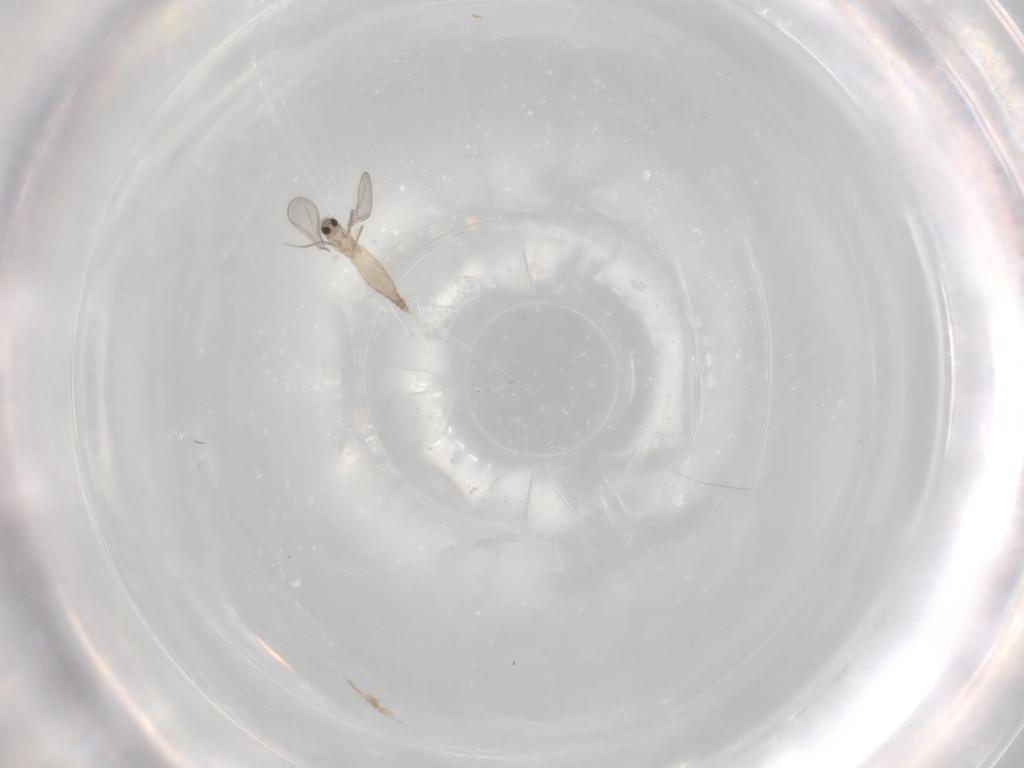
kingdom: Animalia
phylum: Arthropoda
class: Insecta
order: Diptera
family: Cecidomyiidae
